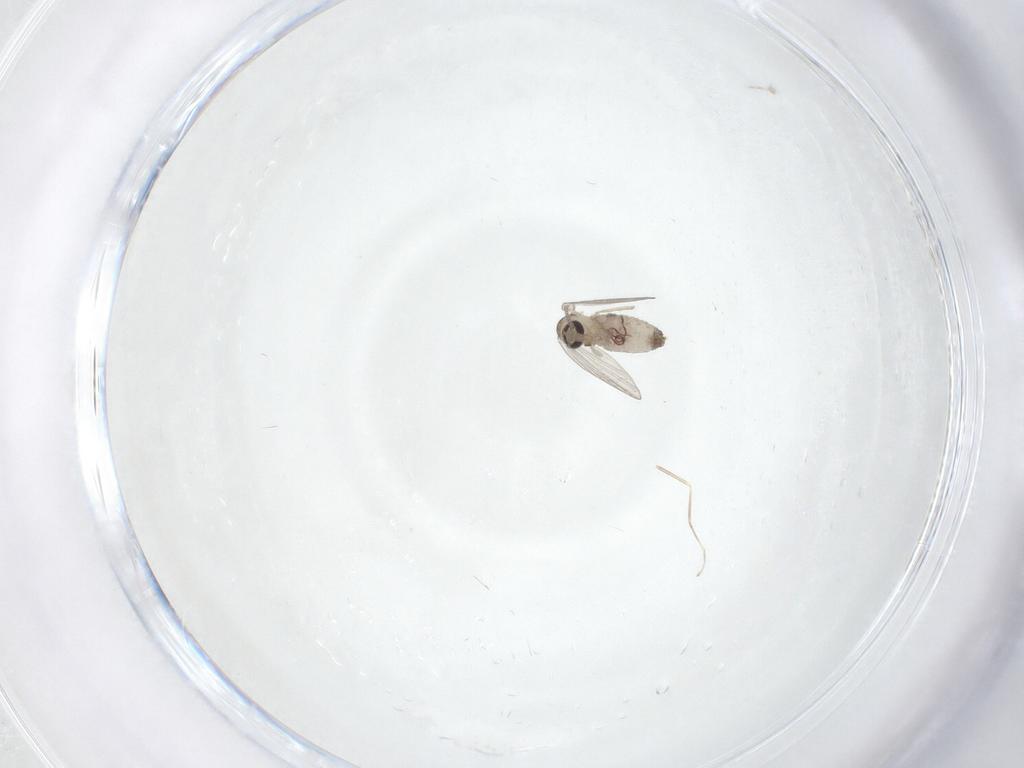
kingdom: Animalia
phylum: Arthropoda
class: Insecta
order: Diptera
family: Psychodidae
